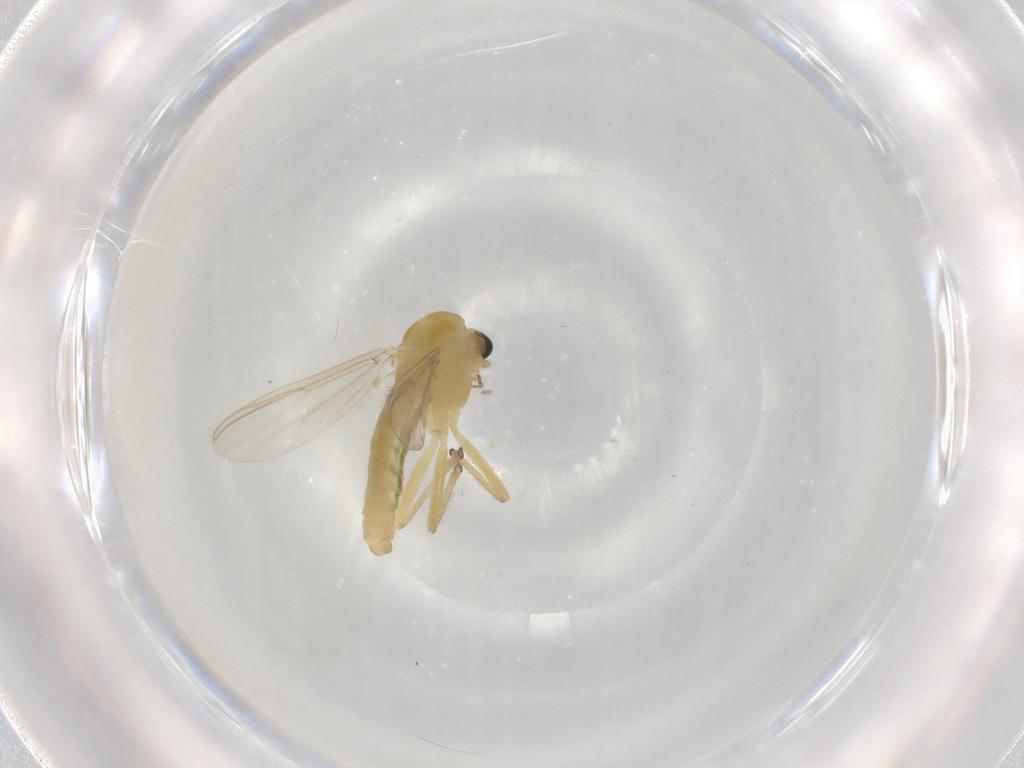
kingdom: Animalia
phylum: Arthropoda
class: Insecta
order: Diptera
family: Chironomidae
